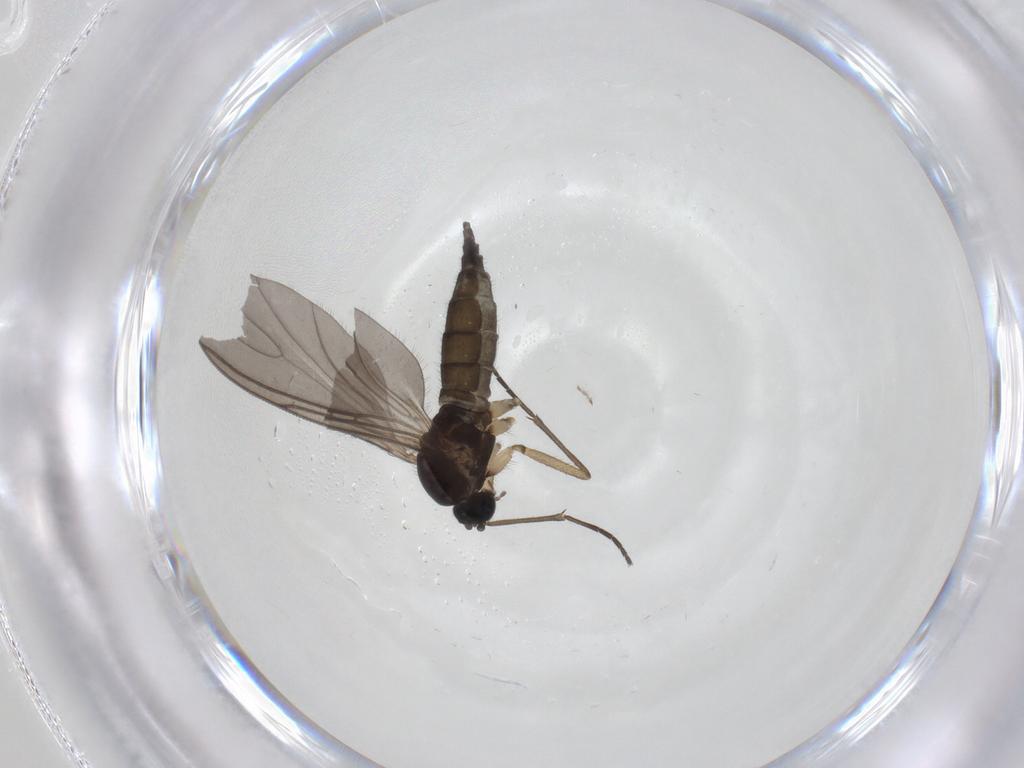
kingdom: Animalia
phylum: Arthropoda
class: Insecta
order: Diptera
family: Sciaridae
